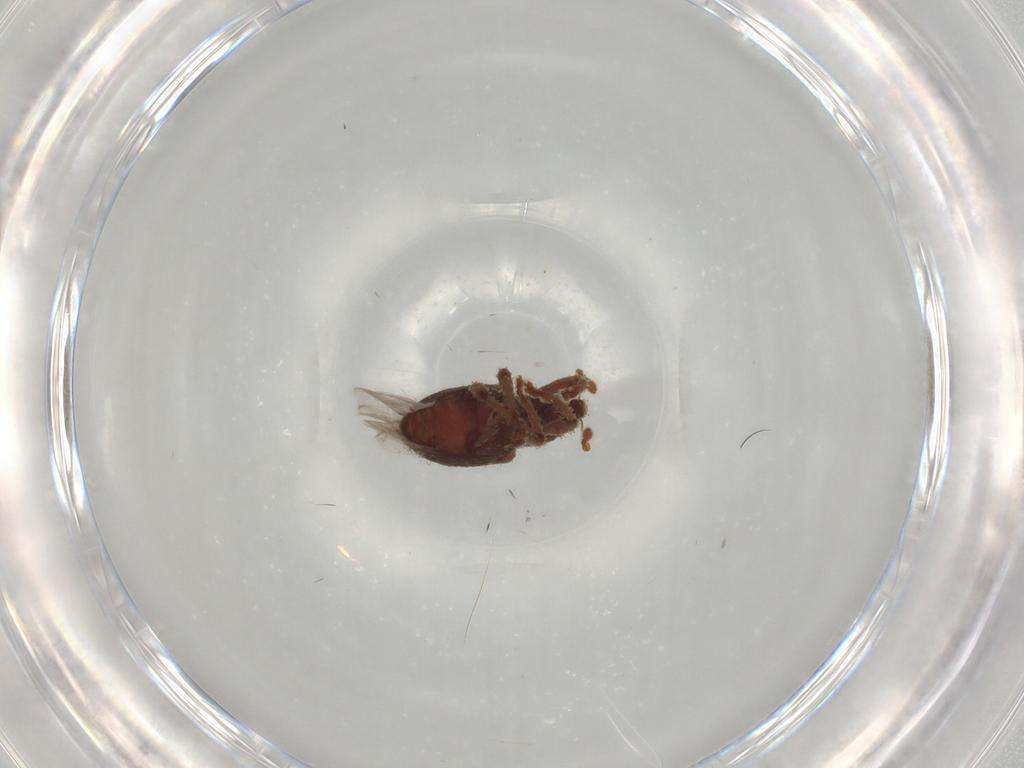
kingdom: Animalia
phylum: Arthropoda
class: Insecta
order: Coleoptera
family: Curculionidae
